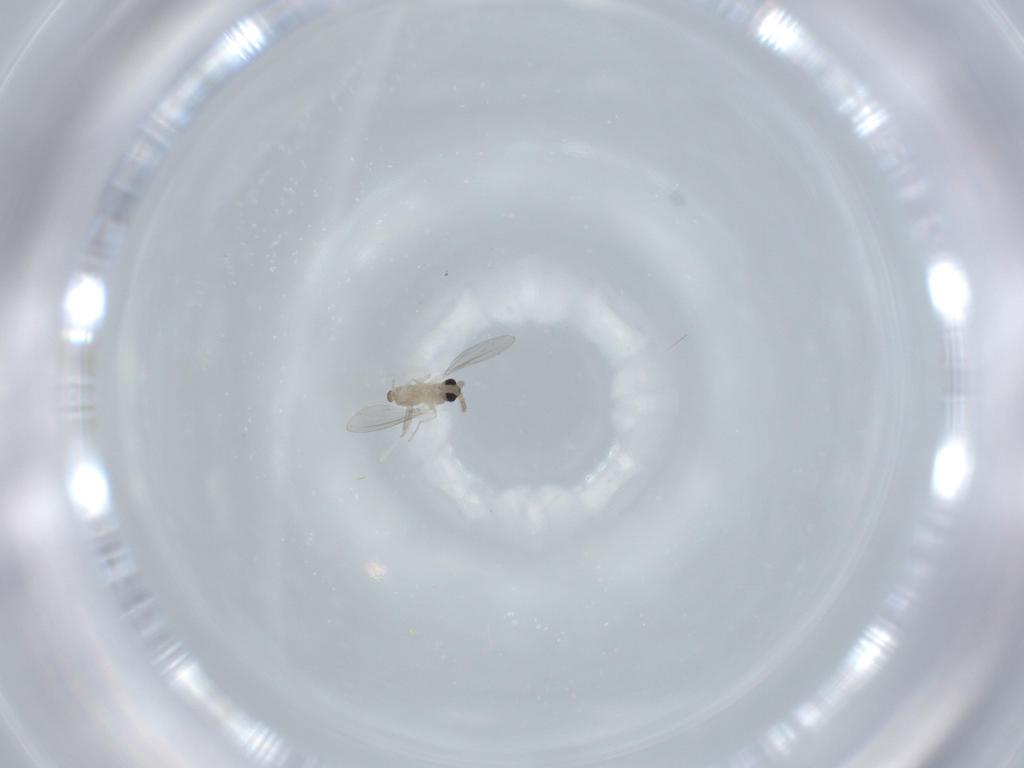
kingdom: Animalia
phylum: Arthropoda
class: Insecta
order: Diptera
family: Cecidomyiidae
